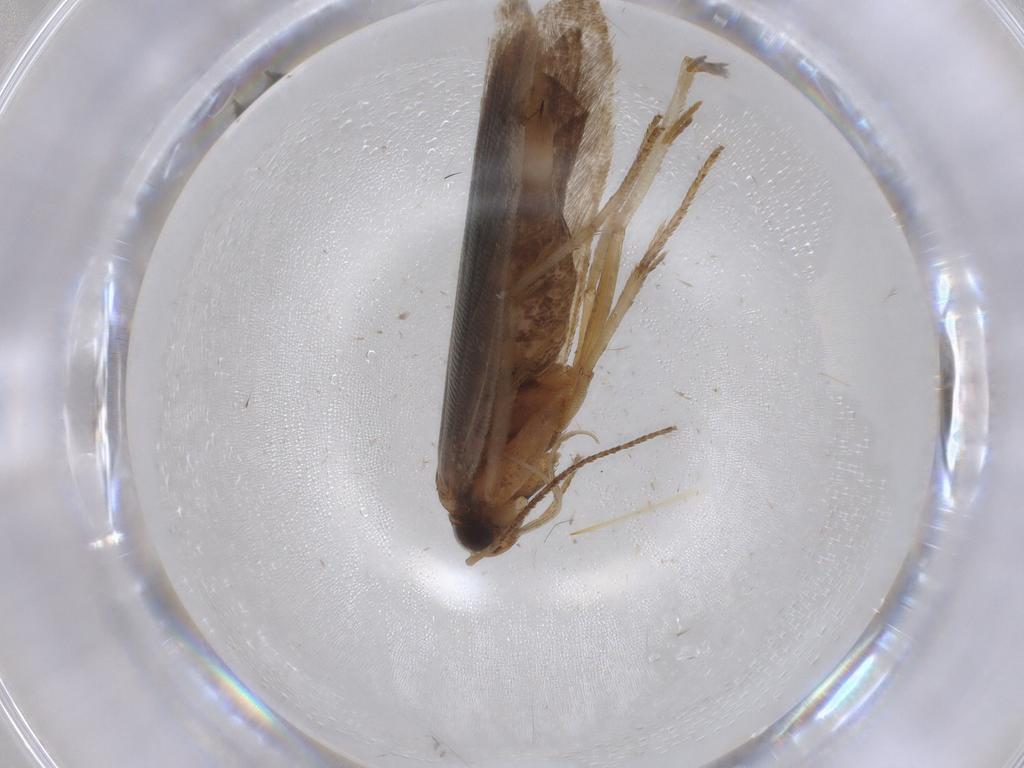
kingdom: Animalia
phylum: Arthropoda
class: Insecta
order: Lepidoptera
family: Gelechiidae
